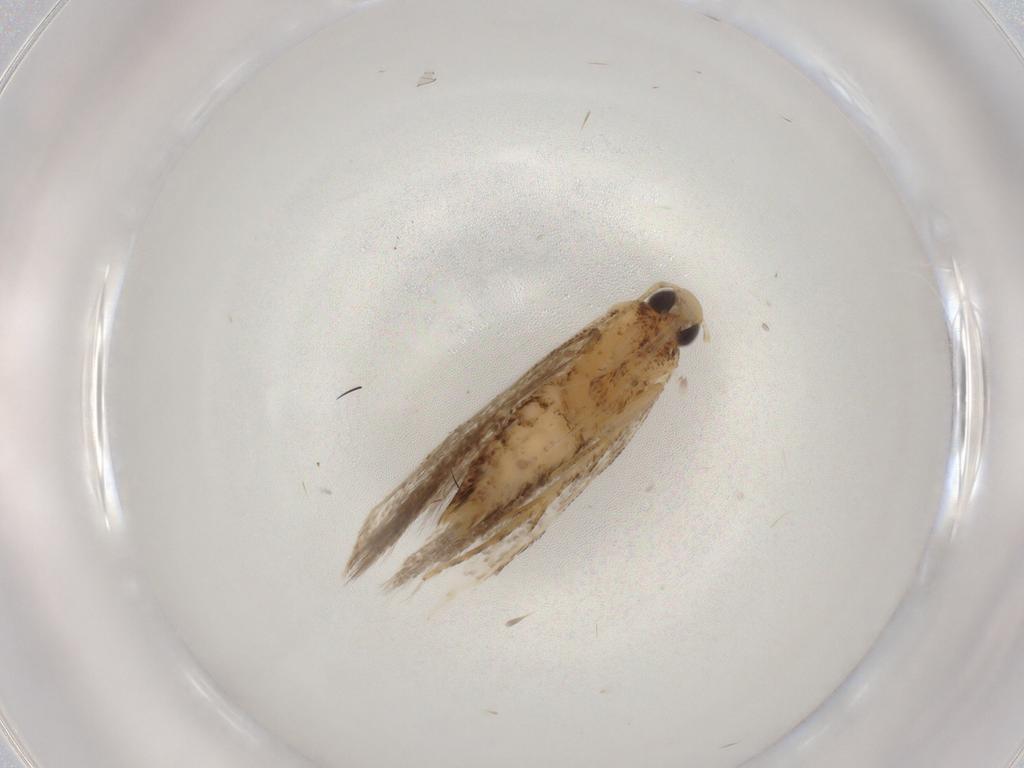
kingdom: Animalia
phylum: Arthropoda
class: Insecta
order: Lepidoptera
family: Gelechiidae
